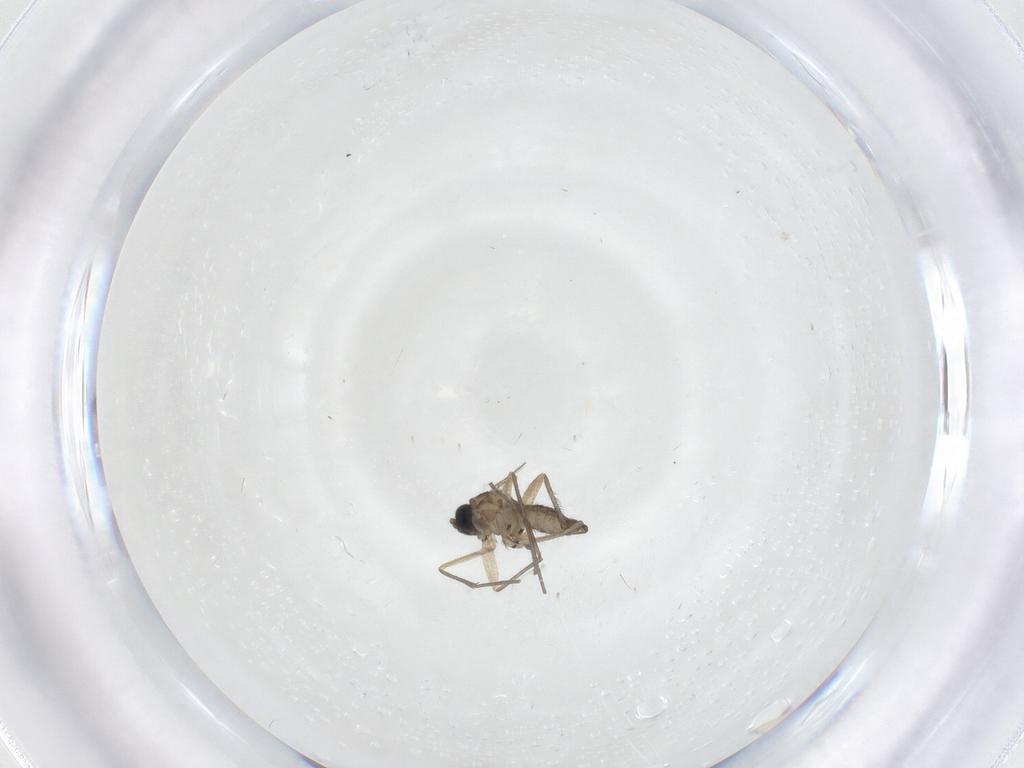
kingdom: Animalia
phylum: Arthropoda
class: Insecta
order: Diptera
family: Sciaridae
